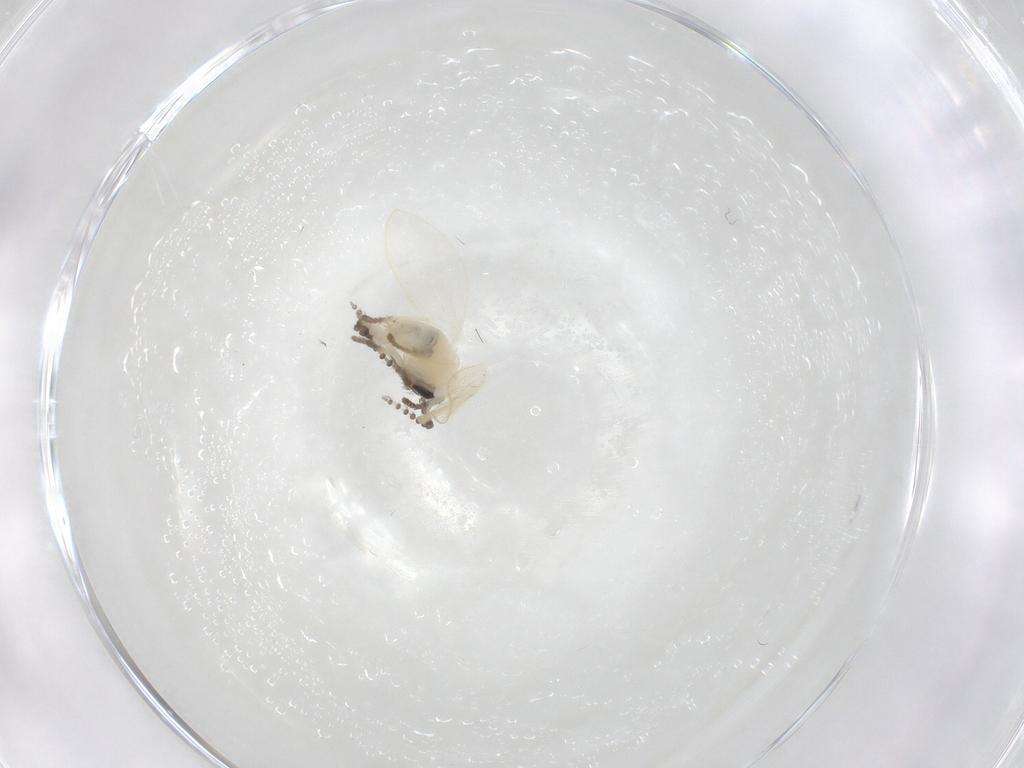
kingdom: Animalia
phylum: Arthropoda
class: Insecta
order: Diptera
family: Psychodidae
